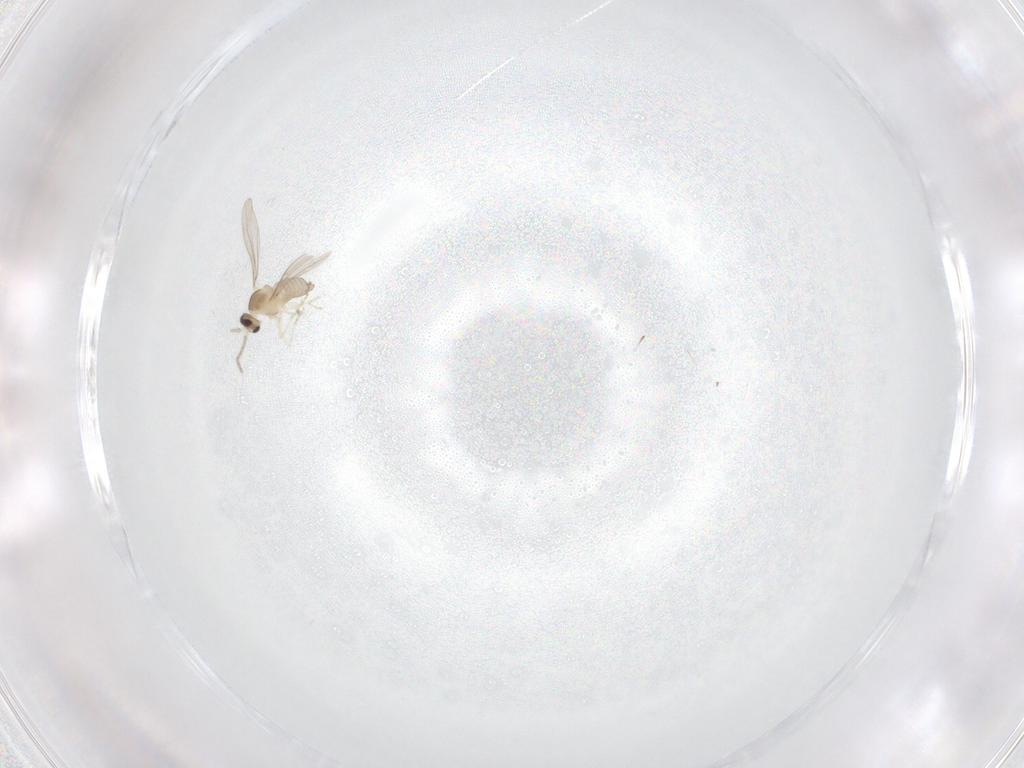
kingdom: Animalia
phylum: Arthropoda
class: Insecta
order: Diptera
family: Cecidomyiidae
